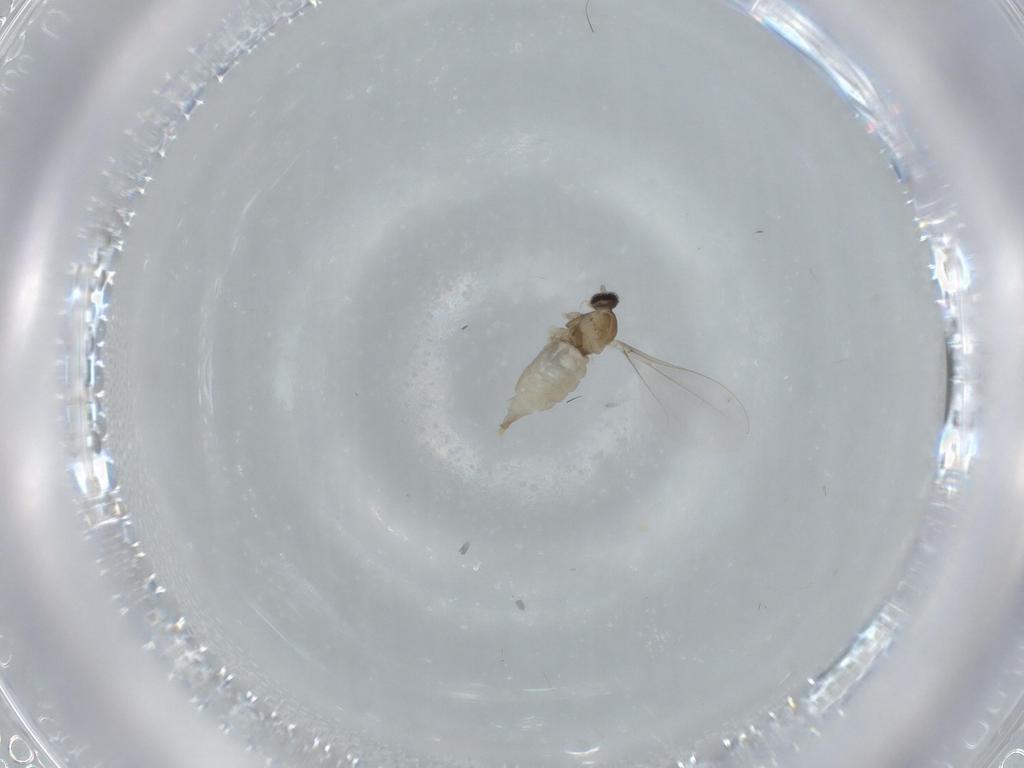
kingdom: Animalia
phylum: Arthropoda
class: Insecta
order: Diptera
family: Cecidomyiidae
